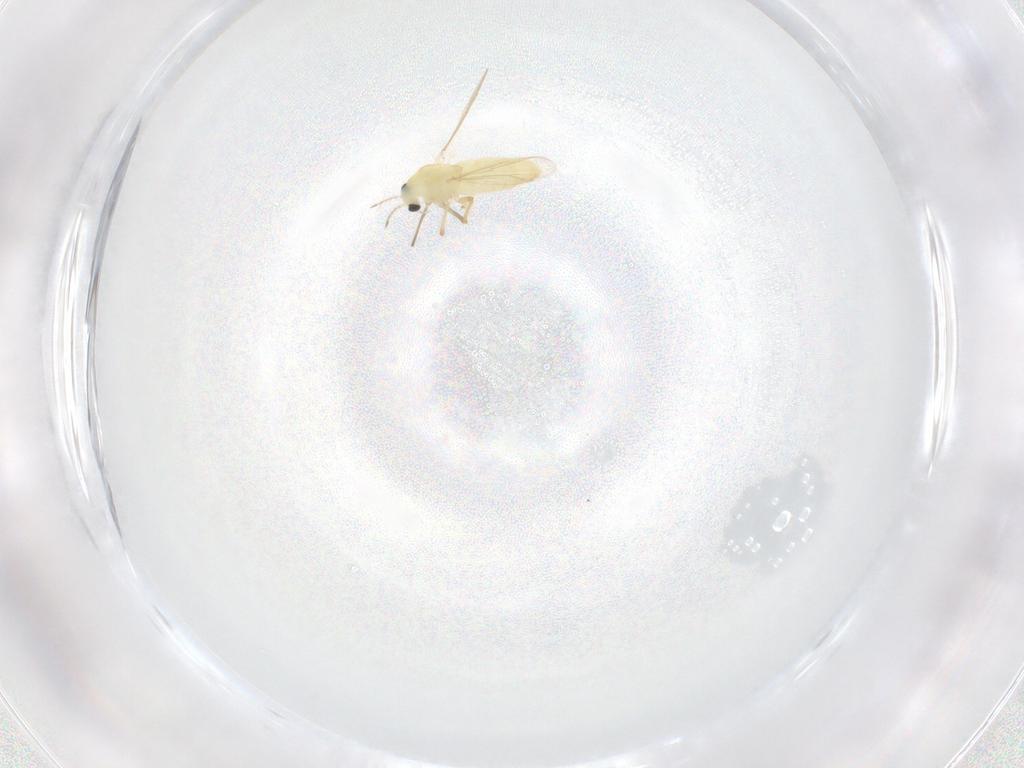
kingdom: Animalia
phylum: Arthropoda
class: Insecta
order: Diptera
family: Chironomidae
